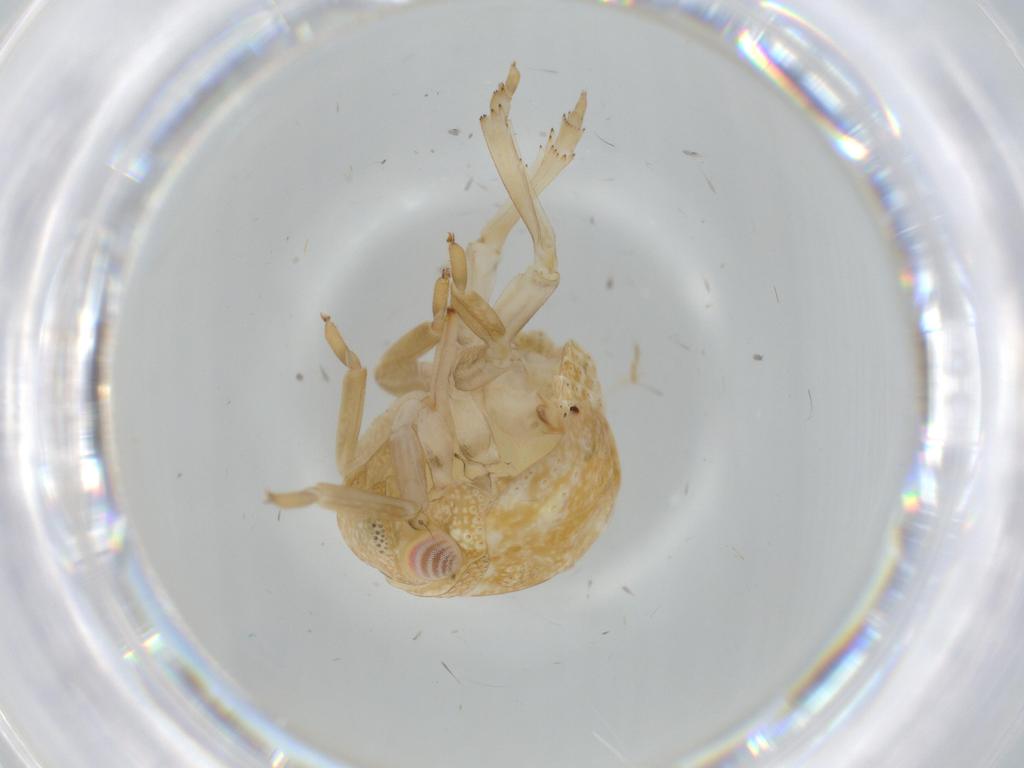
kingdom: Animalia
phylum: Arthropoda
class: Insecta
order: Hemiptera
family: Acanaloniidae
